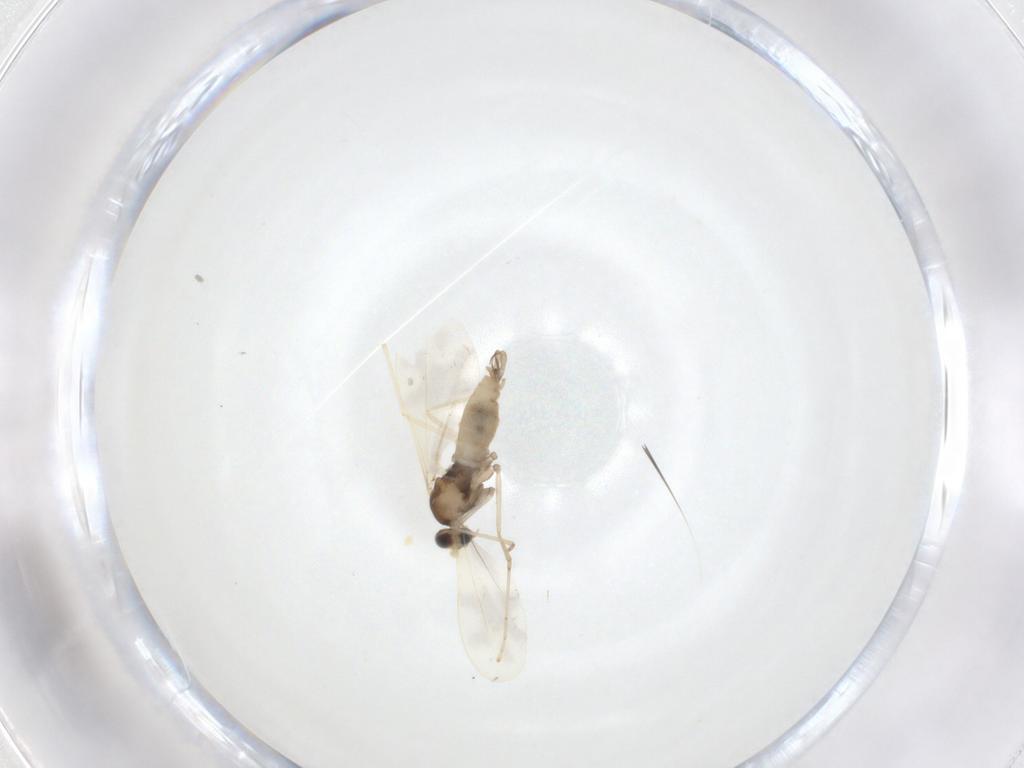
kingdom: Animalia
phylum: Arthropoda
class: Insecta
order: Diptera
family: Cecidomyiidae
